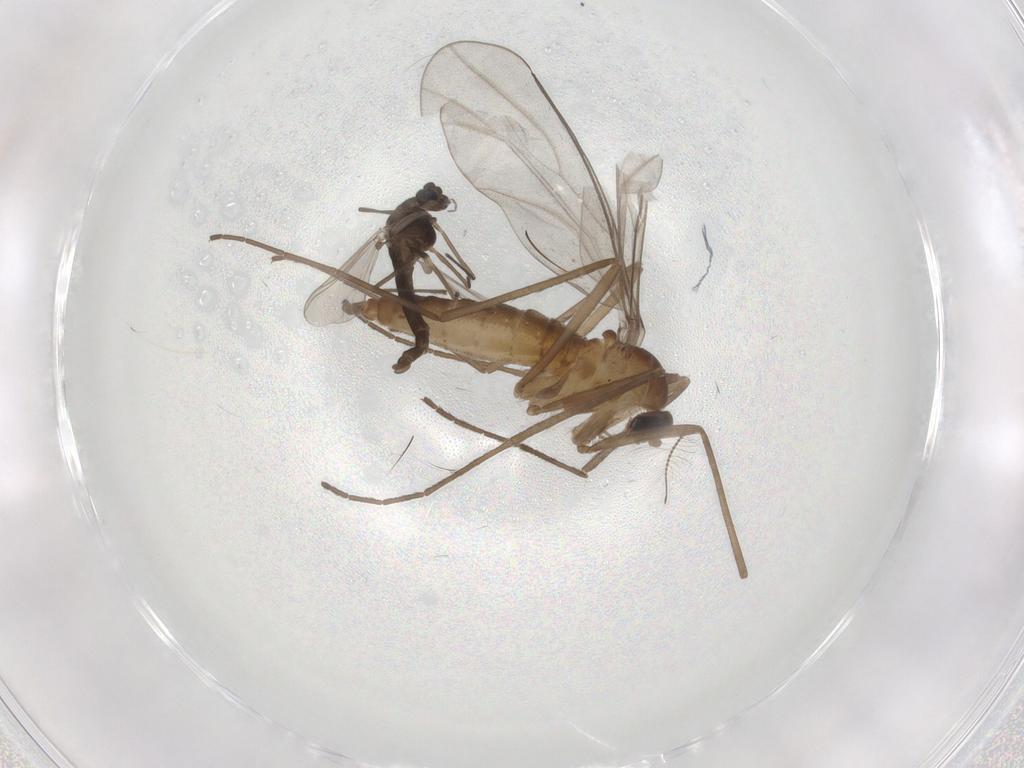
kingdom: Animalia
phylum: Arthropoda
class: Insecta
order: Diptera
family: Chironomidae
